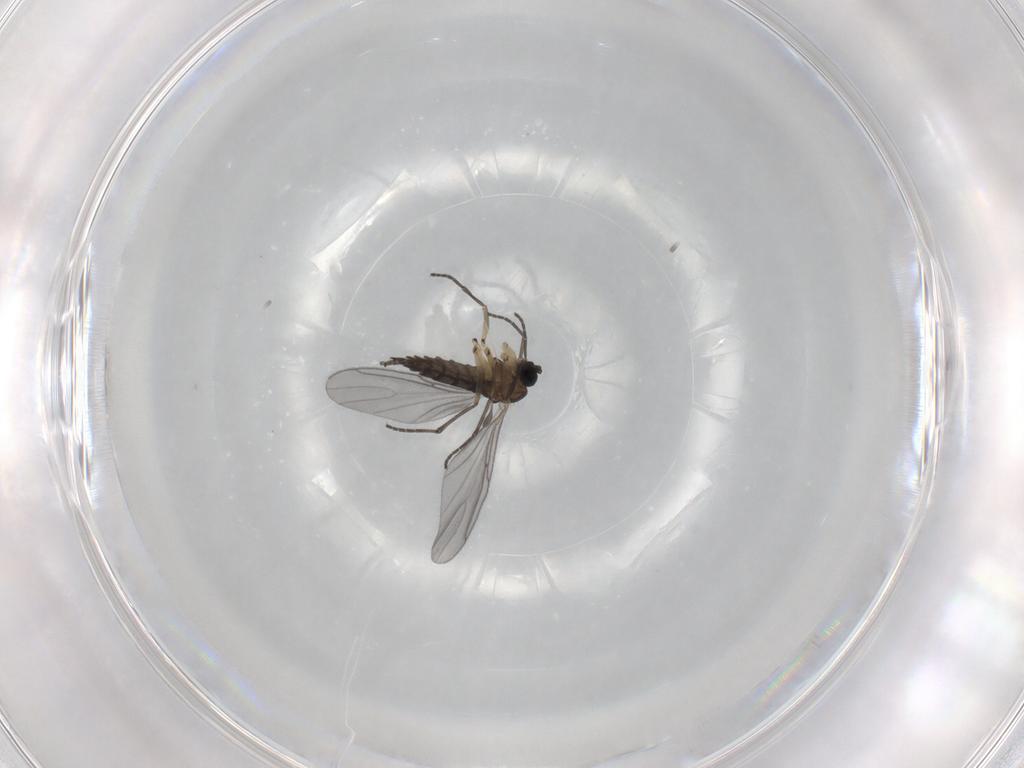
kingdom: Animalia
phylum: Arthropoda
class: Insecta
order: Diptera
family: Sciaridae
